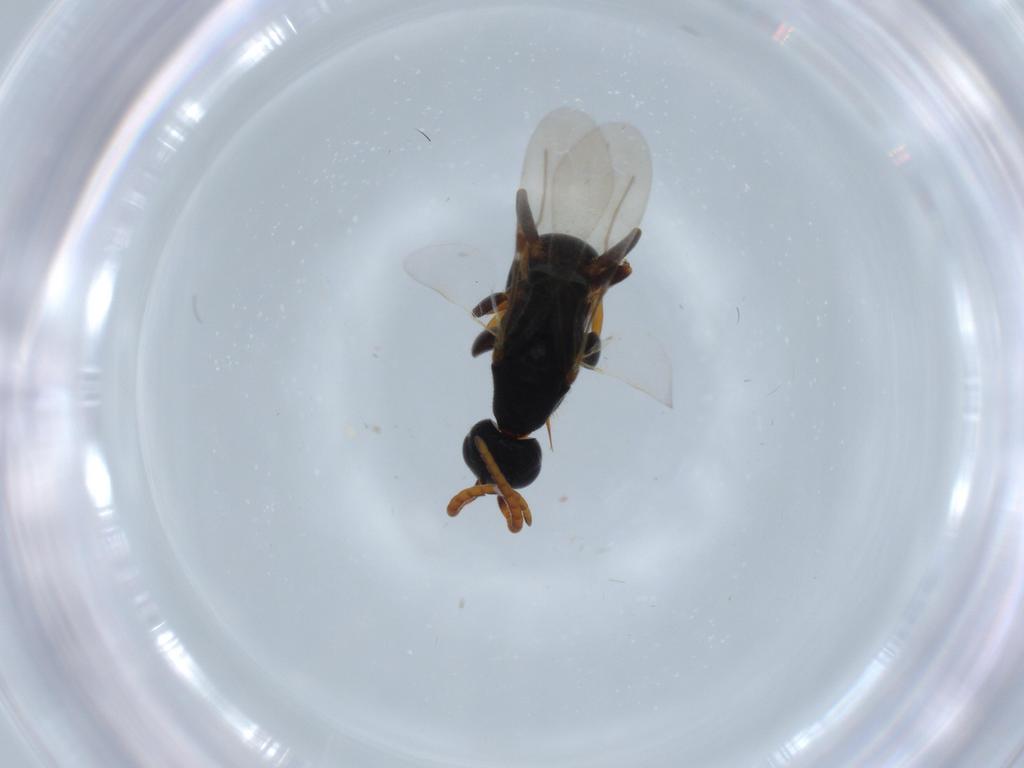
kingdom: Animalia
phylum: Arthropoda
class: Insecta
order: Hymenoptera
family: Bethylidae
